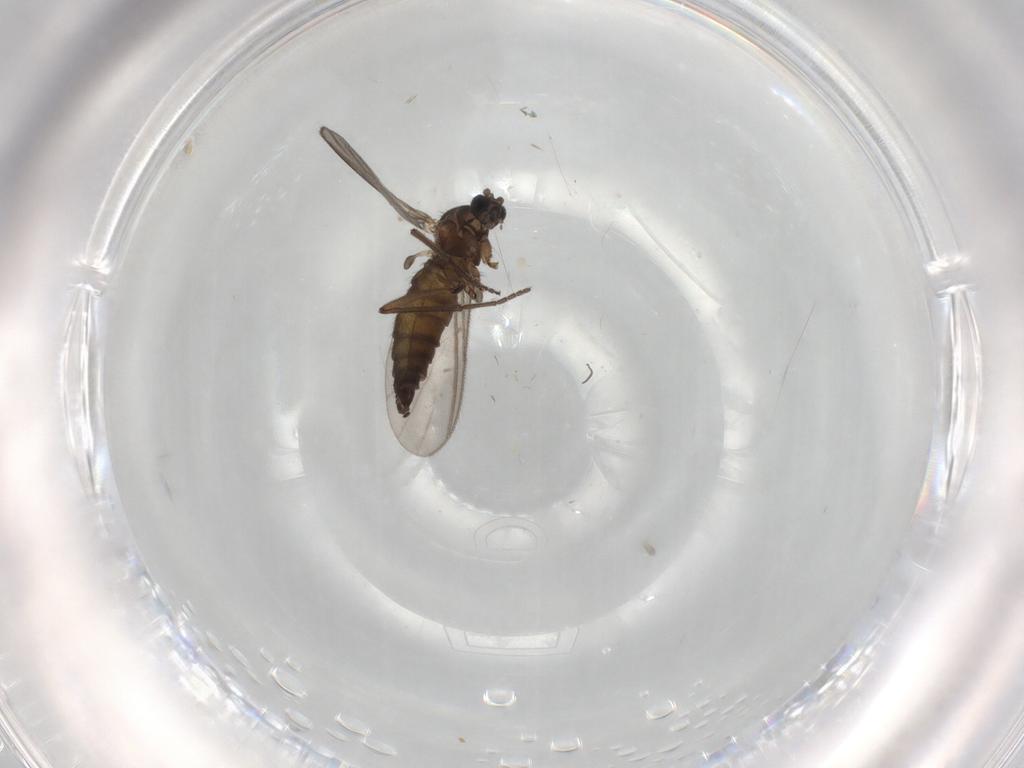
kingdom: Animalia
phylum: Arthropoda
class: Insecta
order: Diptera
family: Sciaridae
